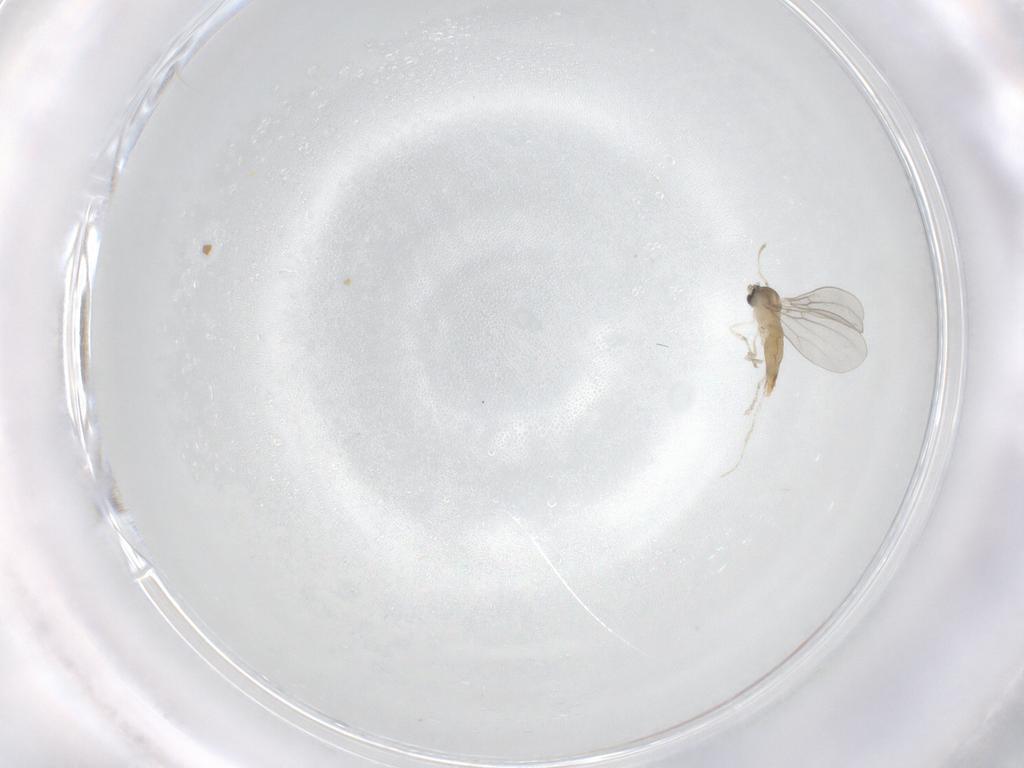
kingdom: Animalia
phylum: Arthropoda
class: Insecta
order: Diptera
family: Cecidomyiidae
